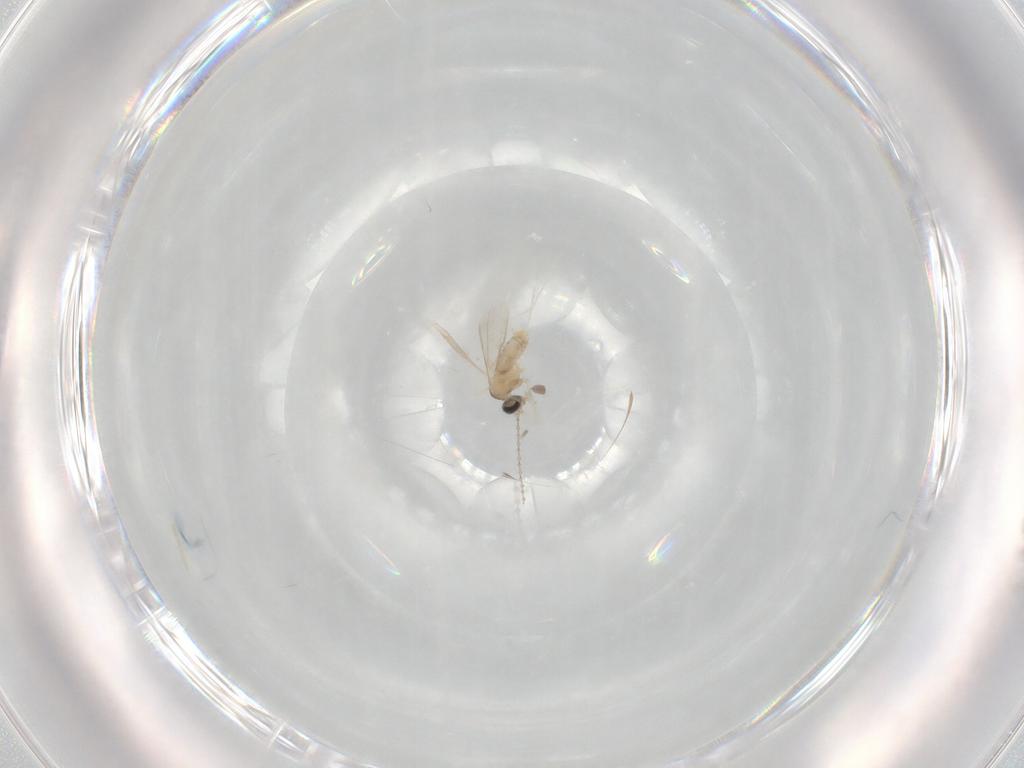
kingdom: Animalia
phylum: Arthropoda
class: Insecta
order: Diptera
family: Cecidomyiidae
